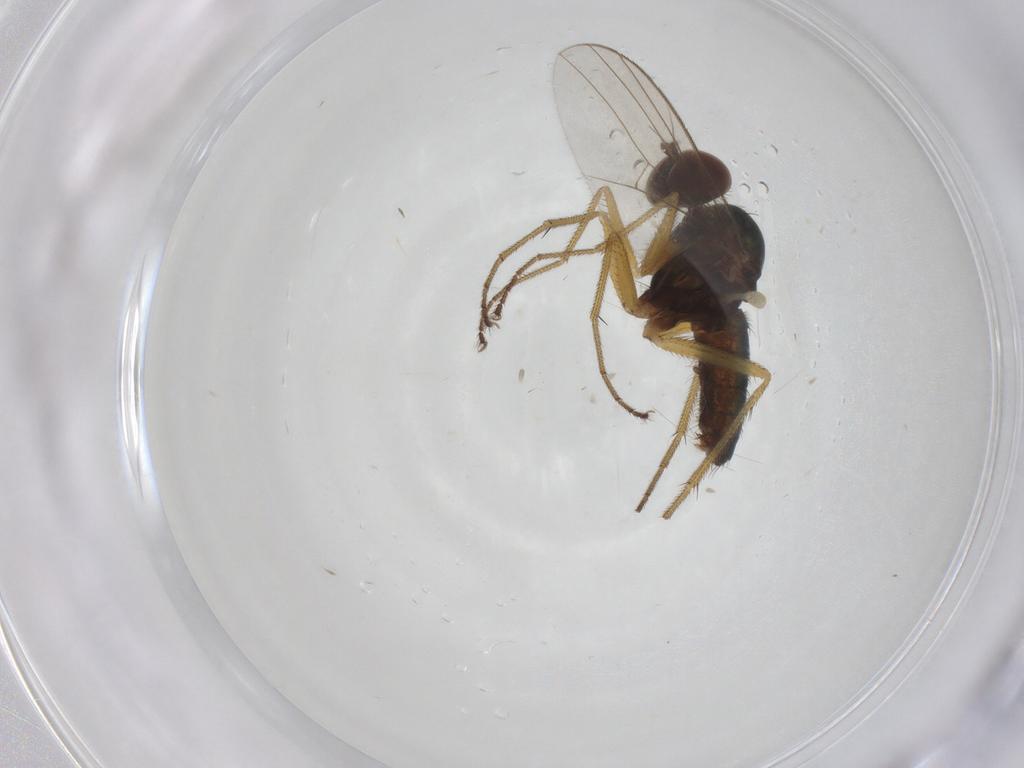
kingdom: Animalia
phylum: Arthropoda
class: Insecta
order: Diptera
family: Dolichopodidae
